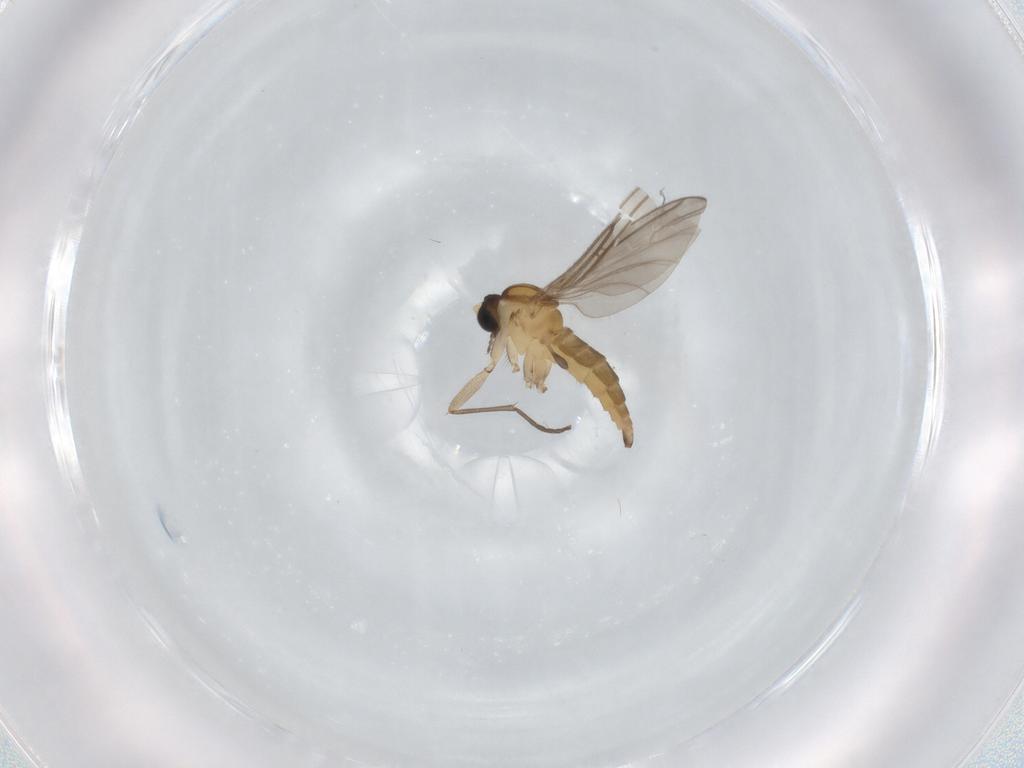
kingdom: Animalia
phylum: Arthropoda
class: Insecta
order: Diptera
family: Sciaridae
